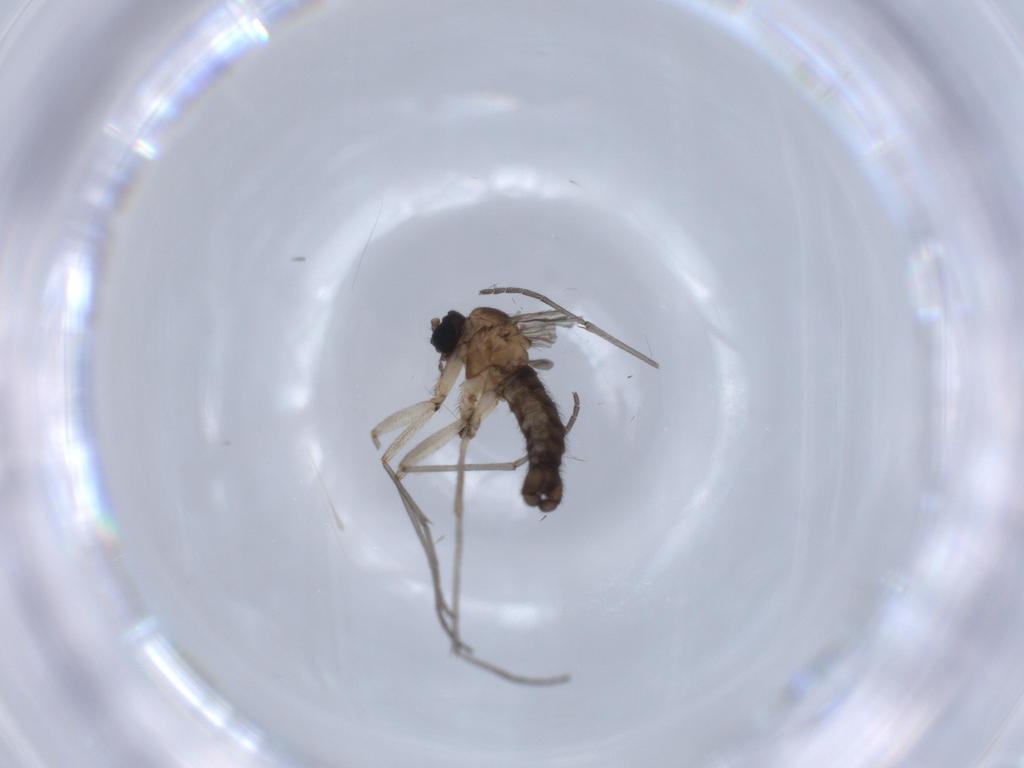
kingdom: Animalia
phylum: Arthropoda
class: Insecta
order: Diptera
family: Sciaridae
